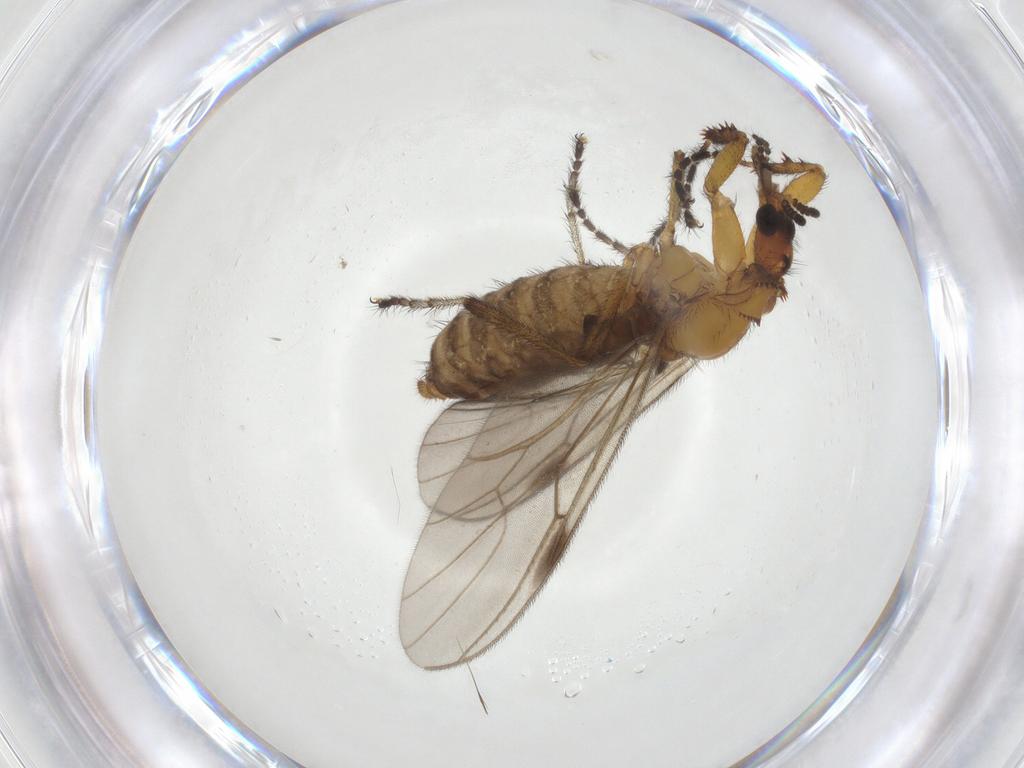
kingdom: Animalia
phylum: Arthropoda
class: Insecta
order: Diptera
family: Bibionidae
